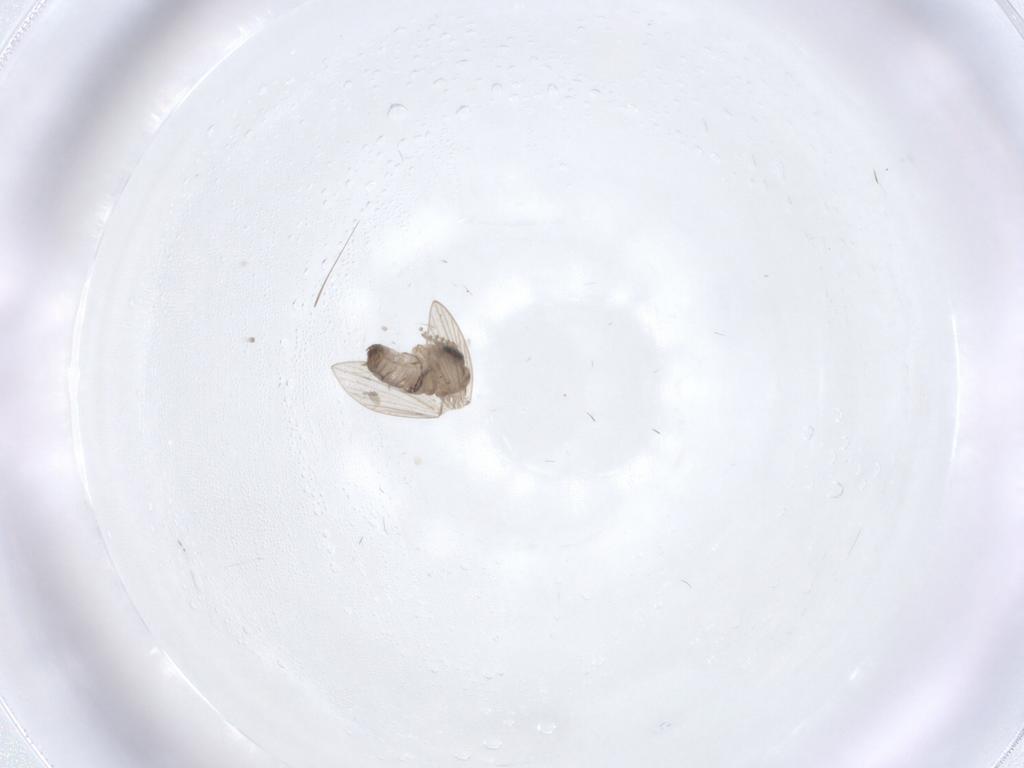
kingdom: Animalia
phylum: Arthropoda
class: Insecta
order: Diptera
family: Psychodidae
